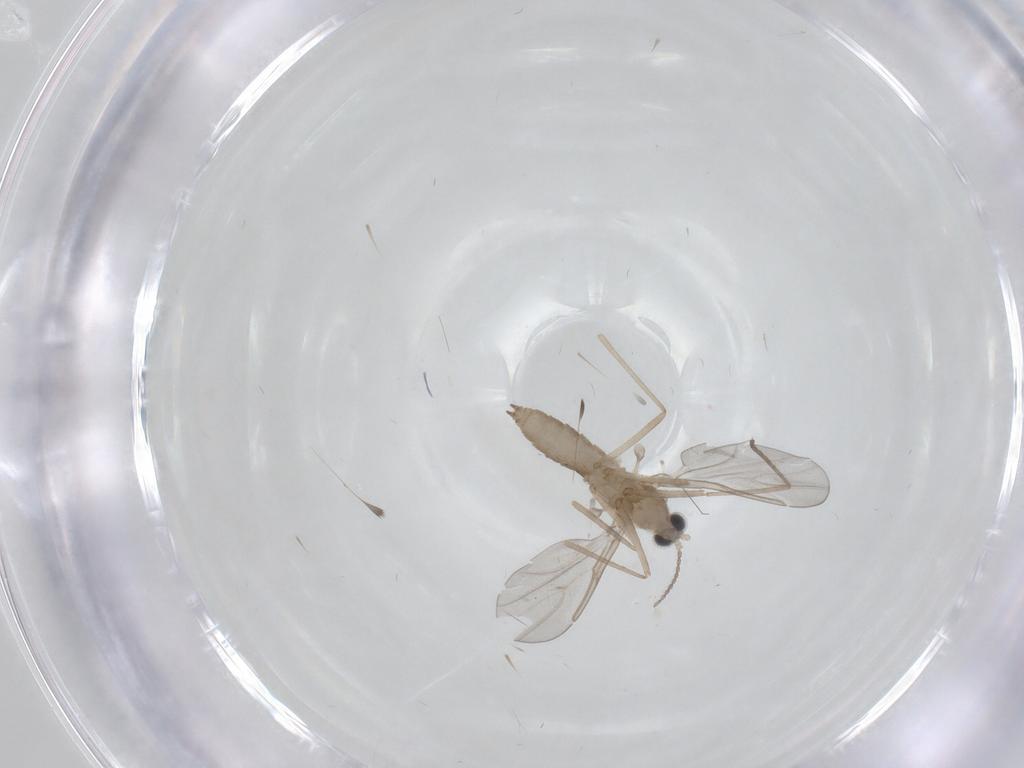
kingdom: Animalia
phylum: Arthropoda
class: Insecta
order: Diptera
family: Cecidomyiidae
